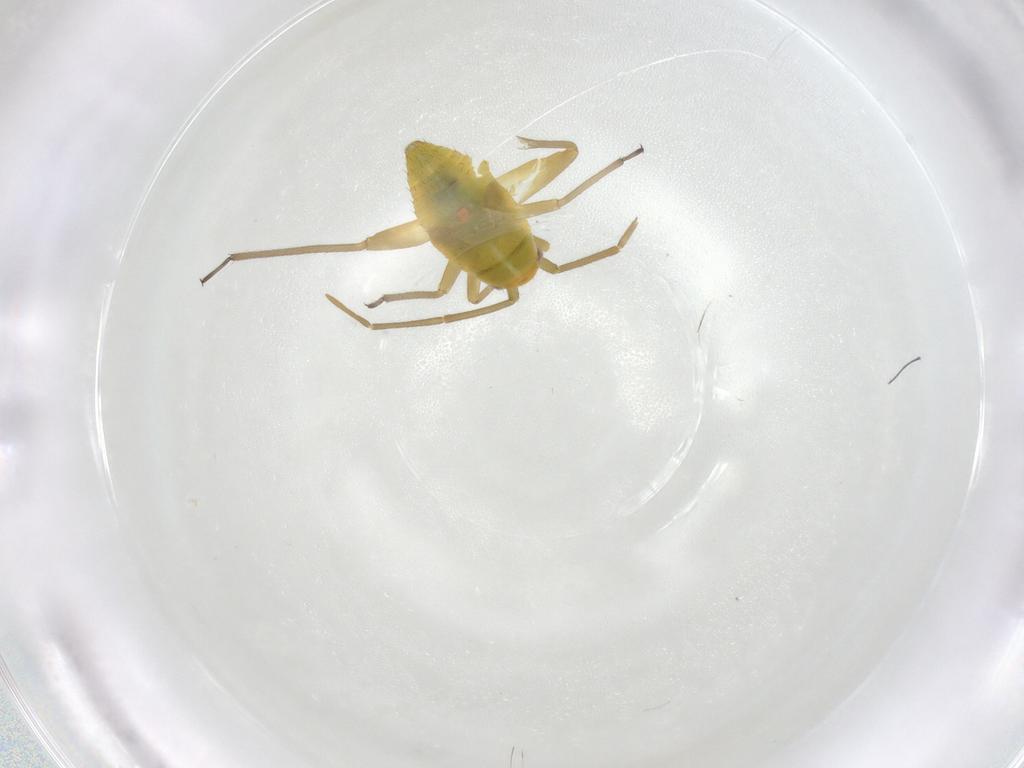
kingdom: Animalia
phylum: Arthropoda
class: Insecta
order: Hemiptera
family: Miridae
